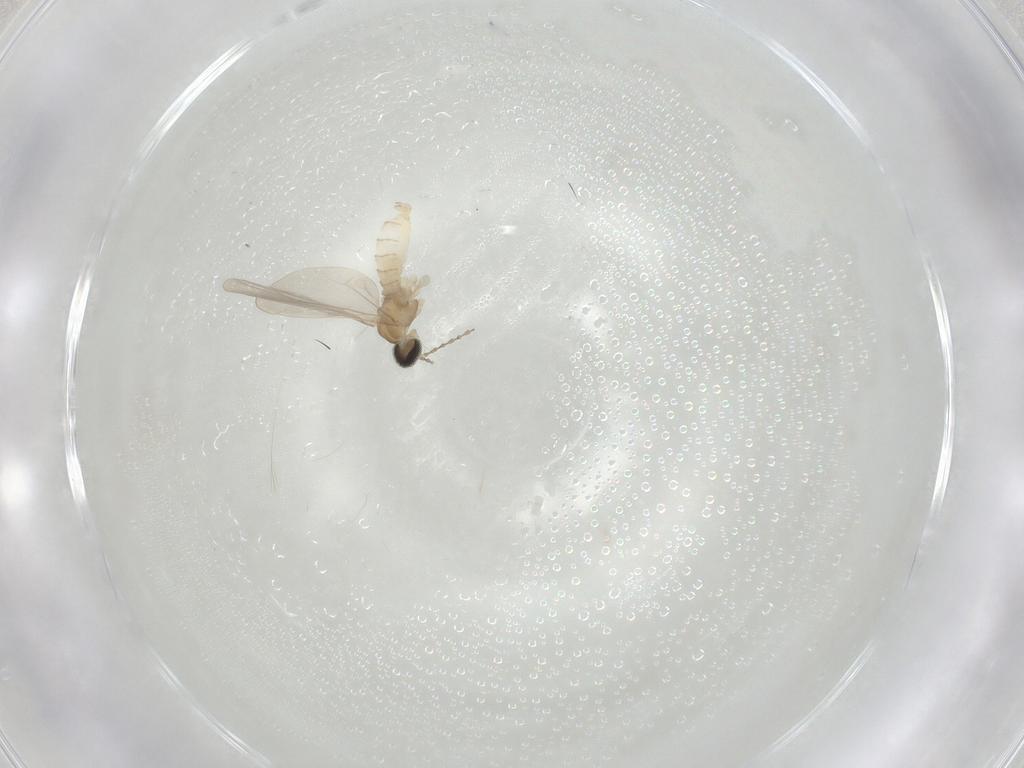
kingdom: Animalia
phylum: Arthropoda
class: Insecta
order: Diptera
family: Cecidomyiidae
